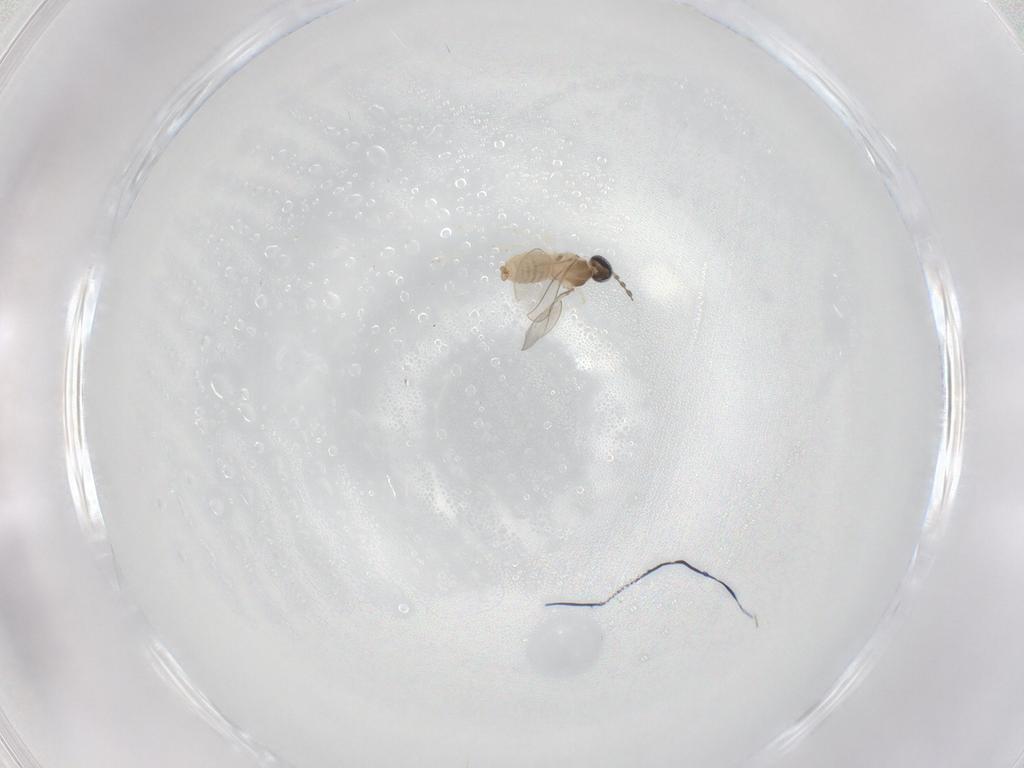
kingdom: Animalia
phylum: Arthropoda
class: Insecta
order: Diptera
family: Cecidomyiidae
